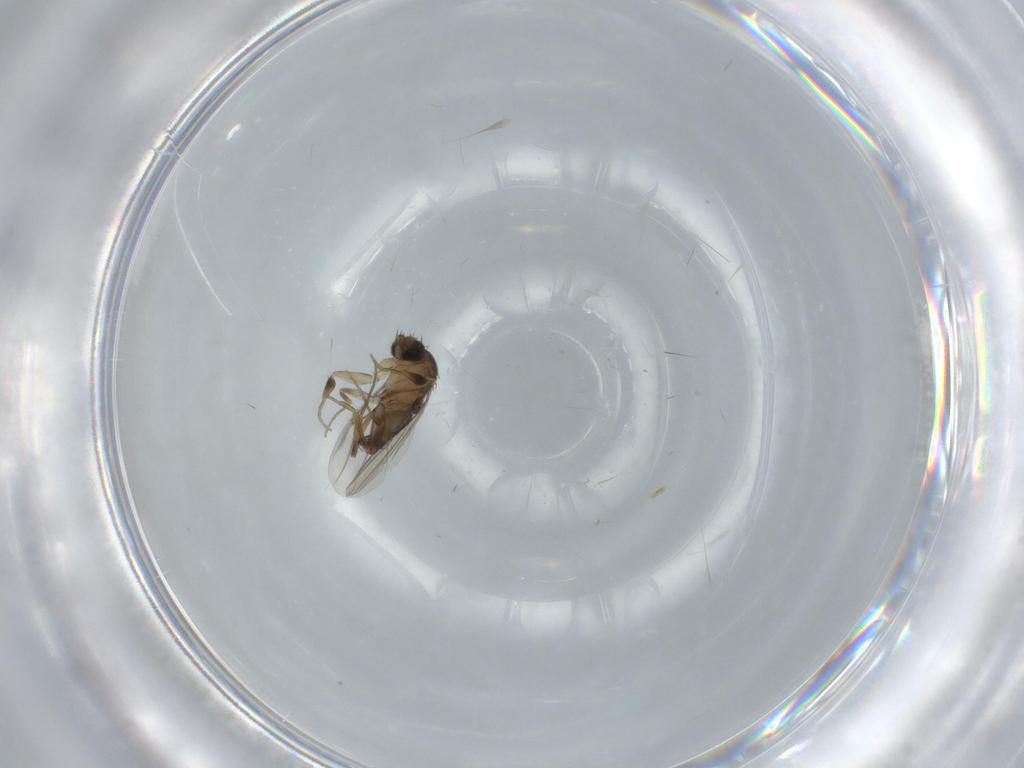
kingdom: Animalia
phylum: Arthropoda
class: Insecta
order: Diptera
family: Phoridae
